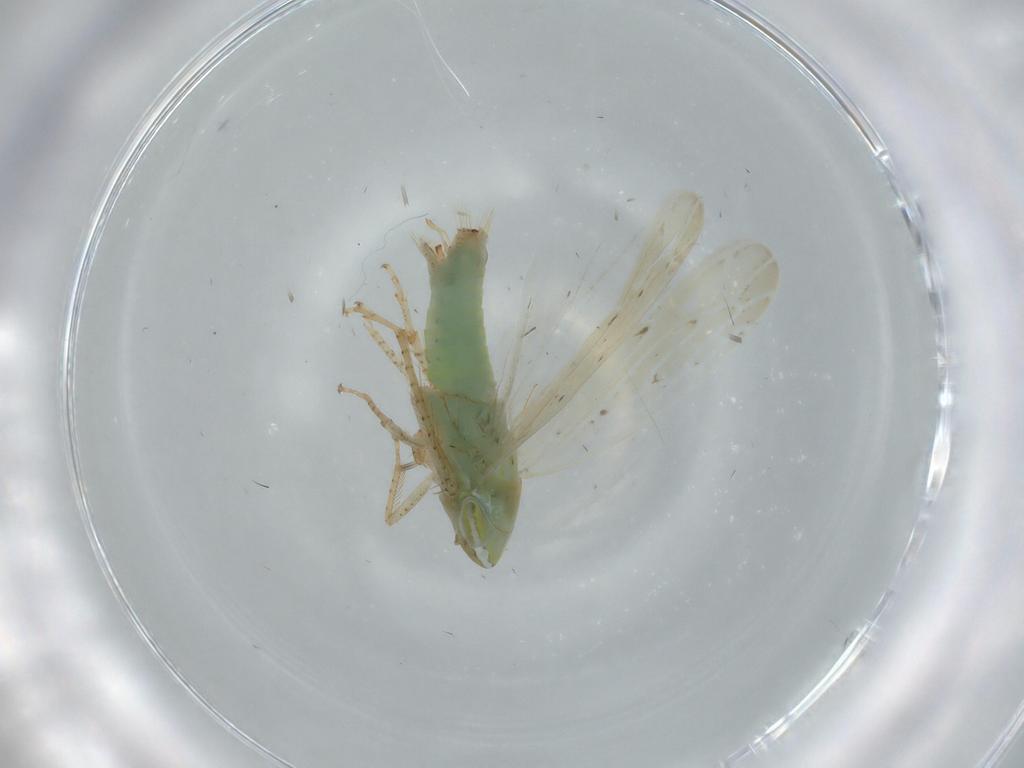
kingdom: Animalia
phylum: Arthropoda
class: Insecta
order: Hemiptera
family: Cicadellidae
